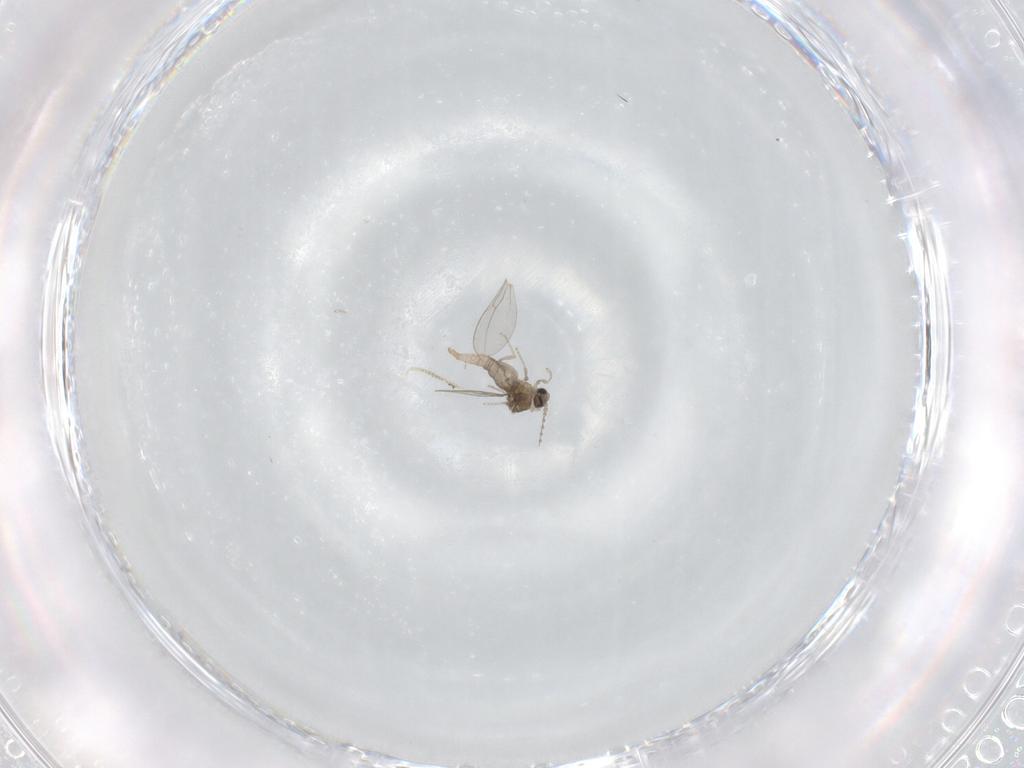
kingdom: Animalia
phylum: Arthropoda
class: Insecta
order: Diptera
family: Cecidomyiidae
